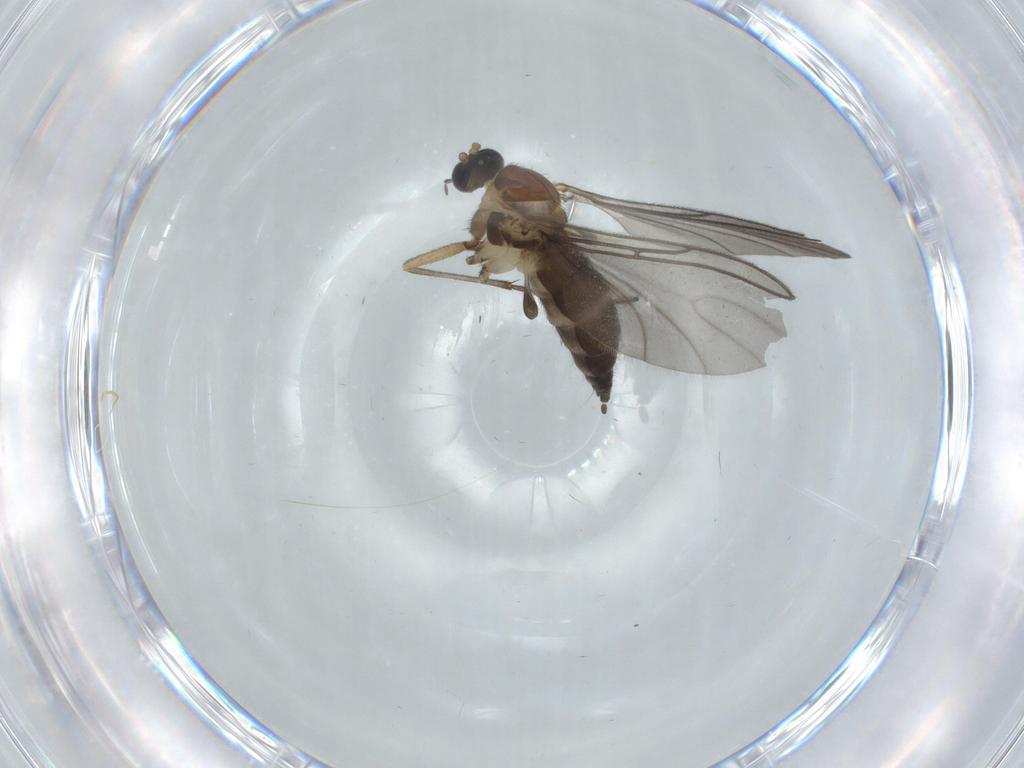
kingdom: Animalia
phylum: Arthropoda
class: Insecta
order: Diptera
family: Sciaridae
